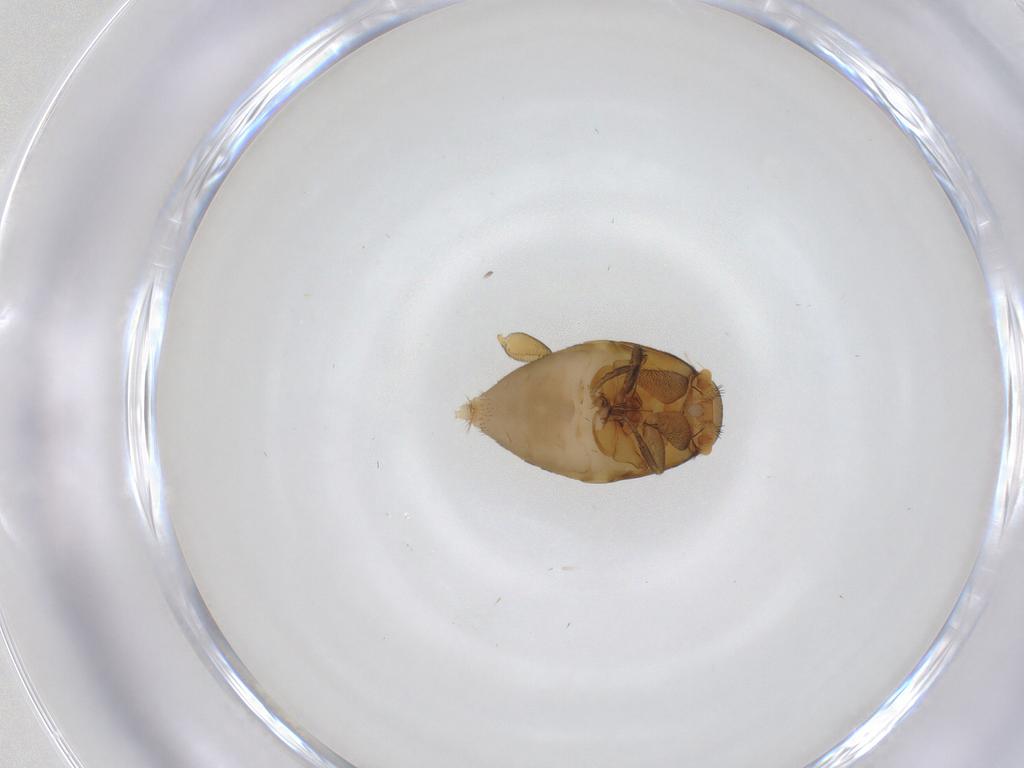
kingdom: Animalia
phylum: Arthropoda
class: Insecta
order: Diptera
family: Phoridae
